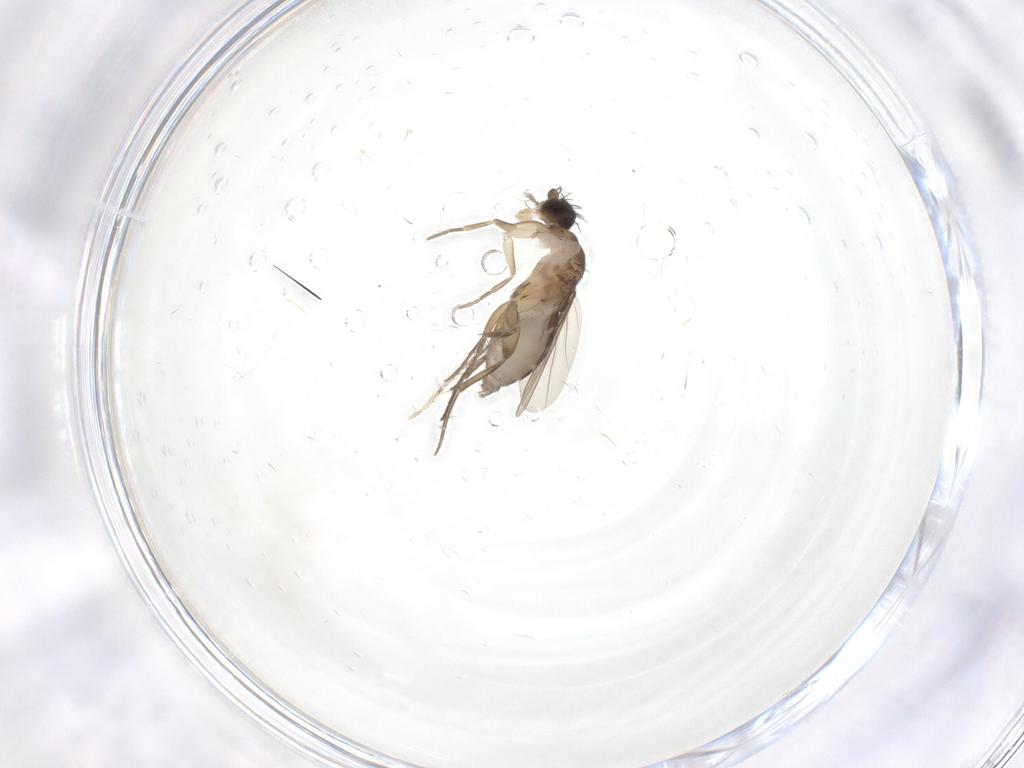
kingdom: Animalia
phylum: Arthropoda
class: Insecta
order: Diptera
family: Phoridae
